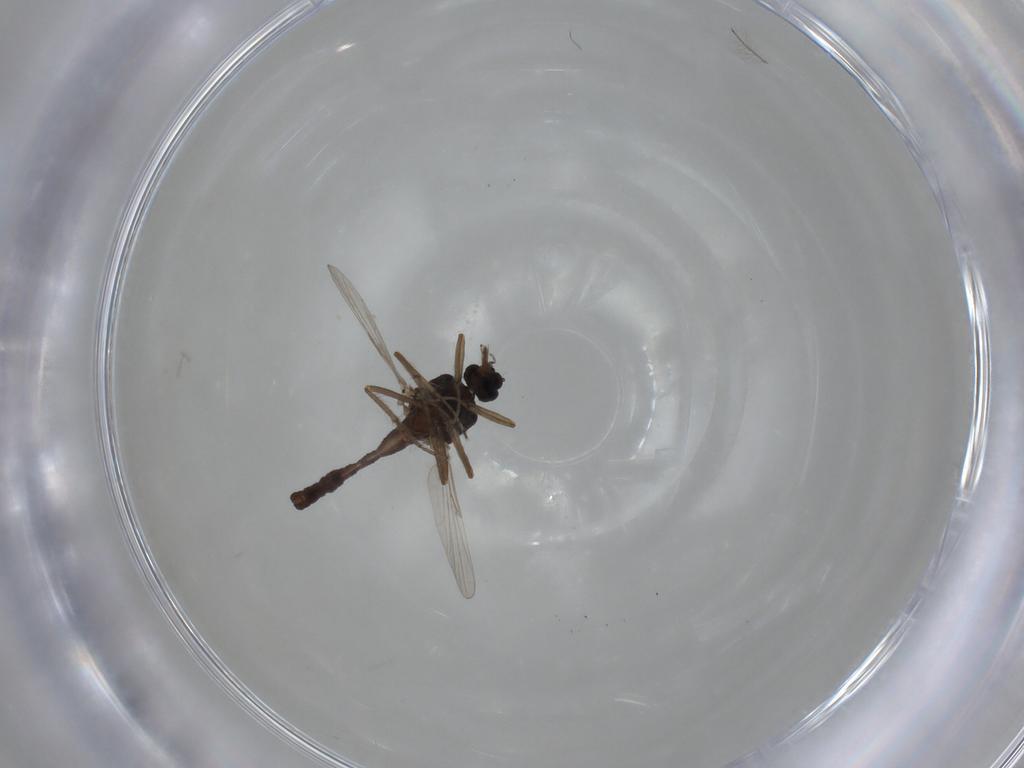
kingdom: Animalia
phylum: Arthropoda
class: Insecta
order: Diptera
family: Ceratopogonidae
